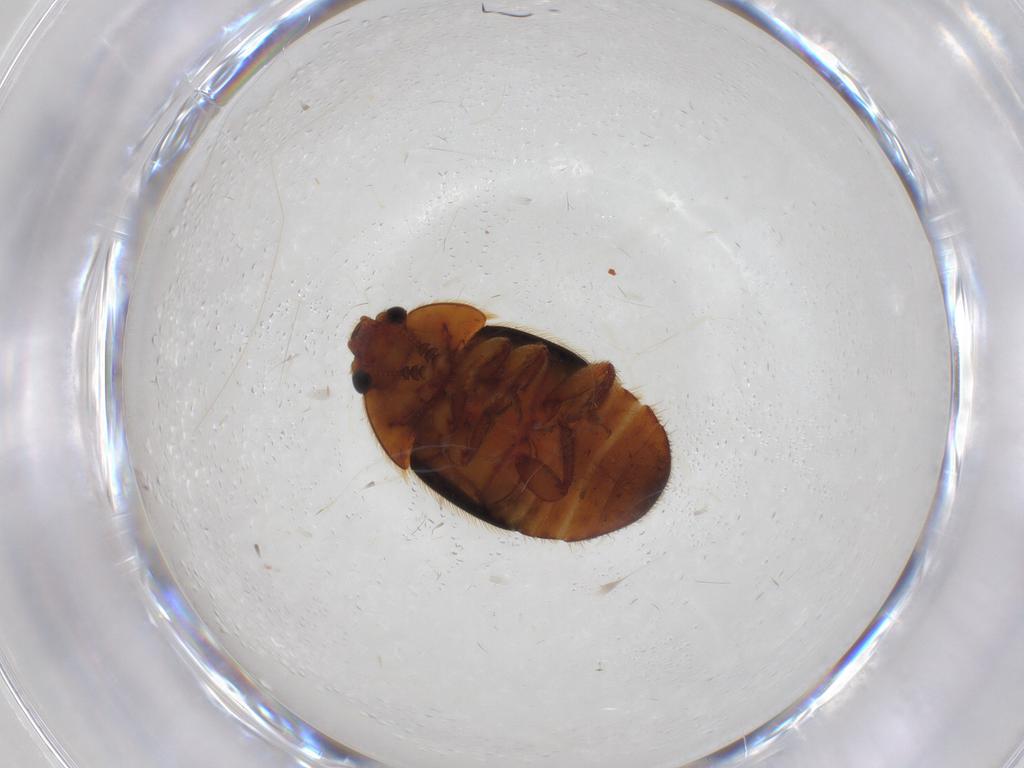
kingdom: Animalia
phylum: Arthropoda
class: Insecta
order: Coleoptera
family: Nitidulidae
